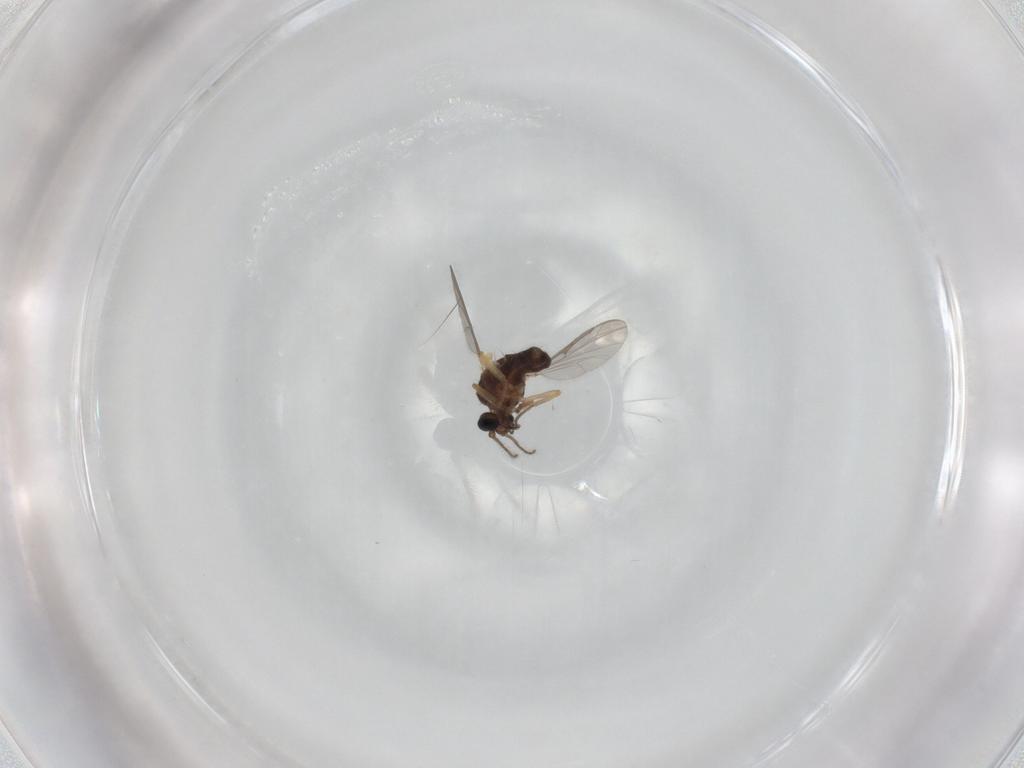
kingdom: Animalia
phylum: Arthropoda
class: Insecta
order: Diptera
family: Ceratopogonidae
